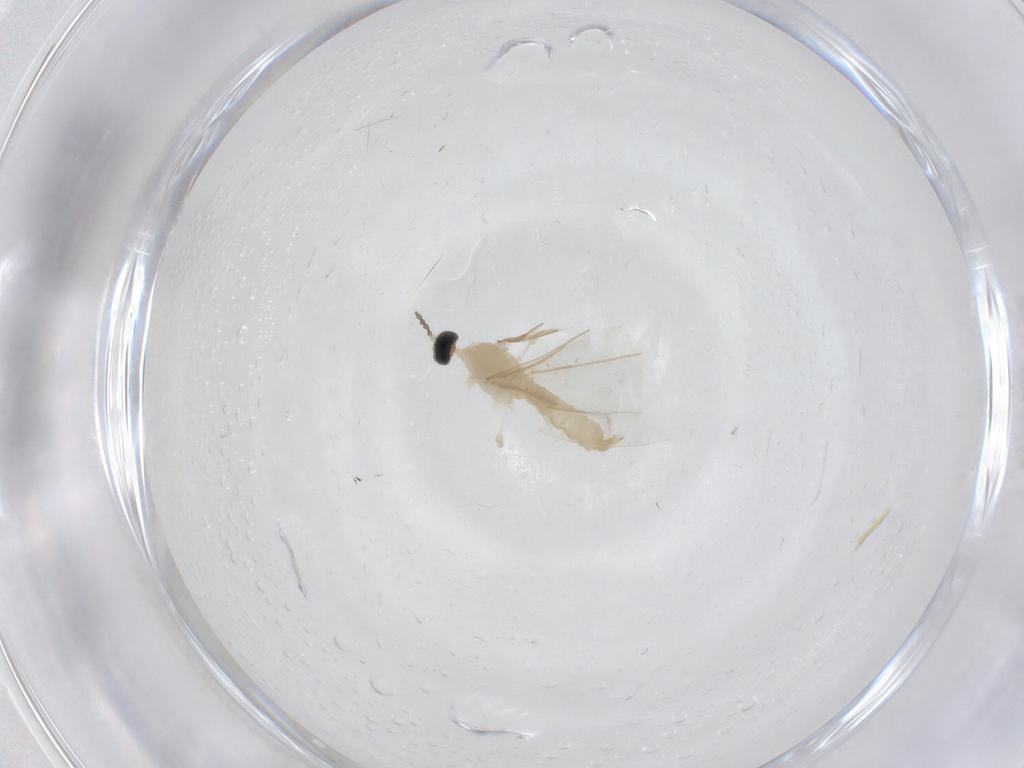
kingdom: Animalia
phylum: Arthropoda
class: Insecta
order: Diptera
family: Cecidomyiidae
